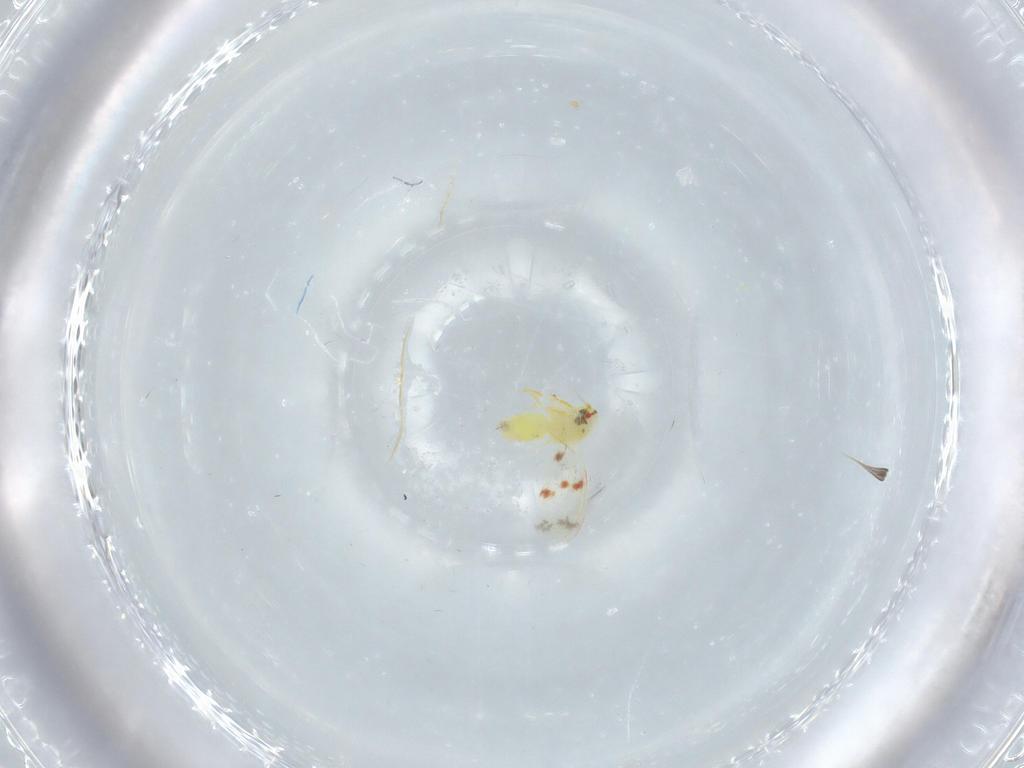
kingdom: Animalia
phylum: Arthropoda
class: Insecta
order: Hemiptera
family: Aleyrodidae
